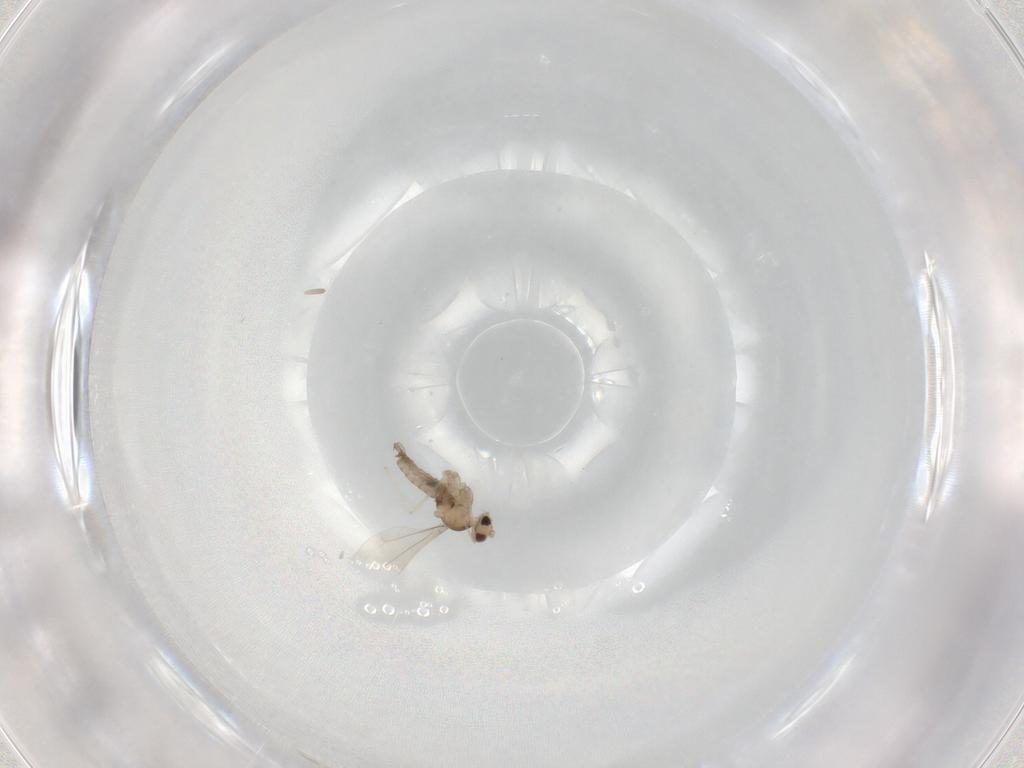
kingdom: Animalia
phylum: Arthropoda
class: Insecta
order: Diptera
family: Cecidomyiidae
